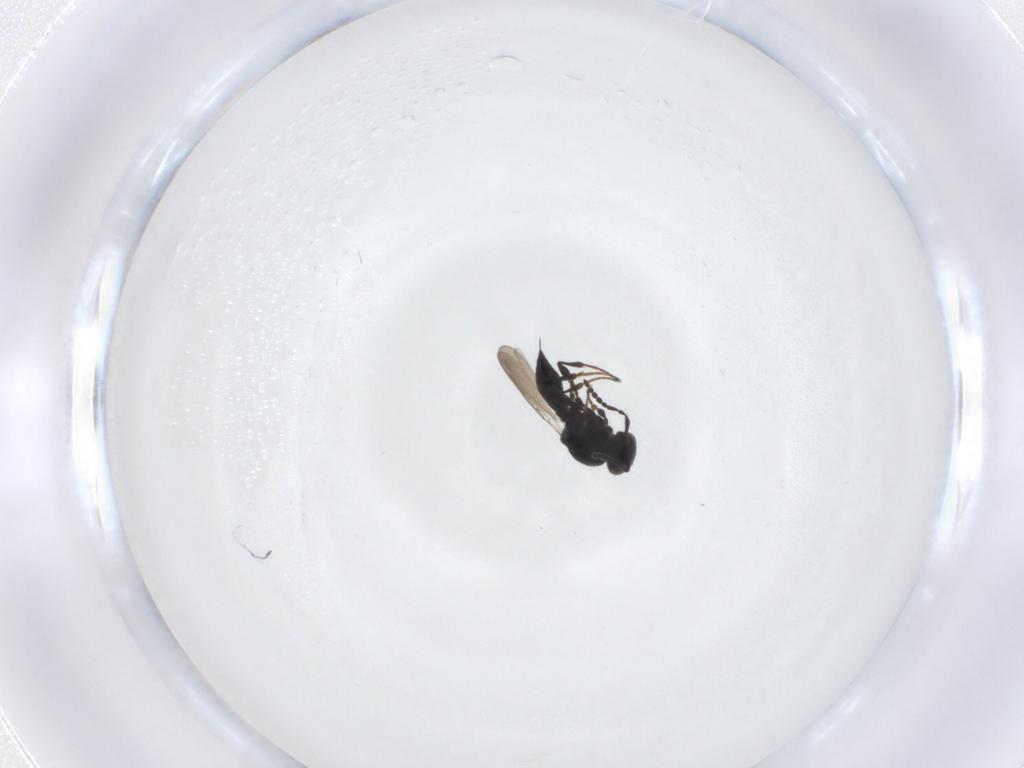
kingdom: Animalia
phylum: Arthropoda
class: Insecta
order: Hymenoptera
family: Platygastridae
